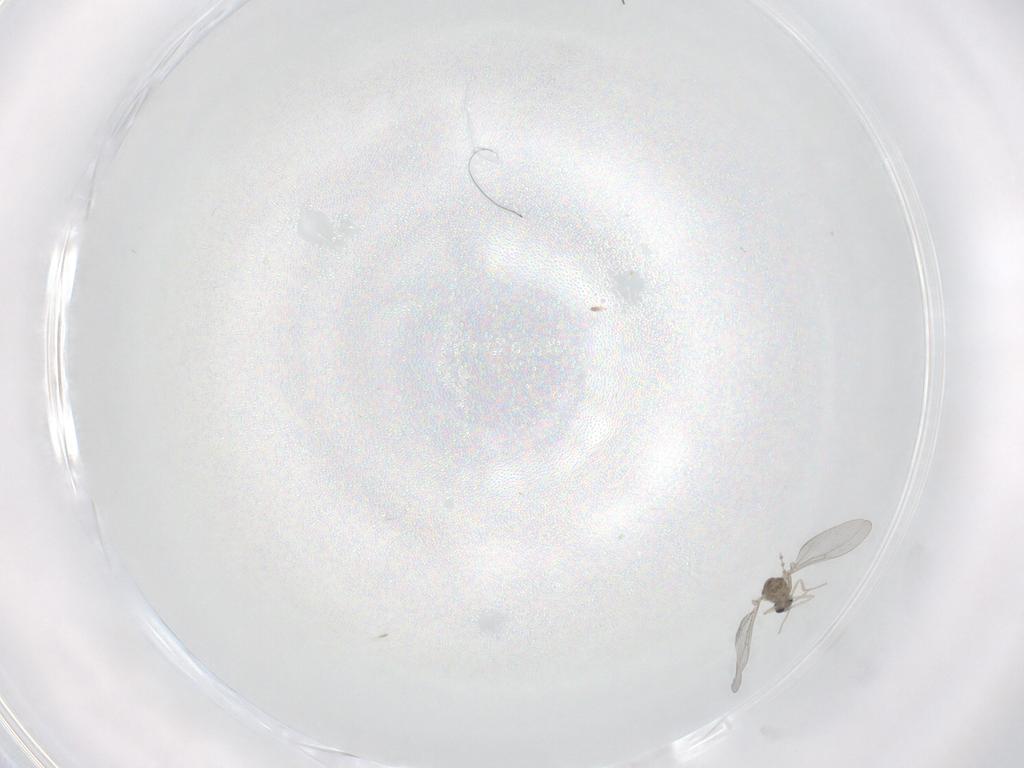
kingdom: Animalia
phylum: Arthropoda
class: Insecta
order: Diptera
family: Cecidomyiidae
